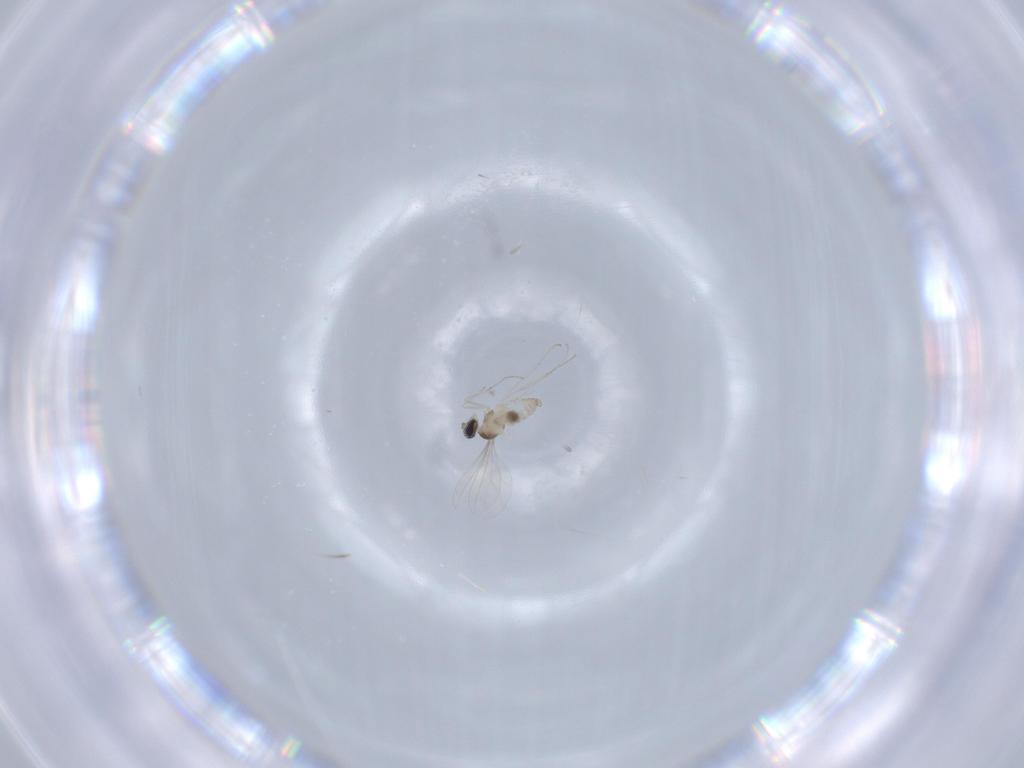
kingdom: Animalia
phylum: Arthropoda
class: Insecta
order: Diptera
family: Cecidomyiidae
